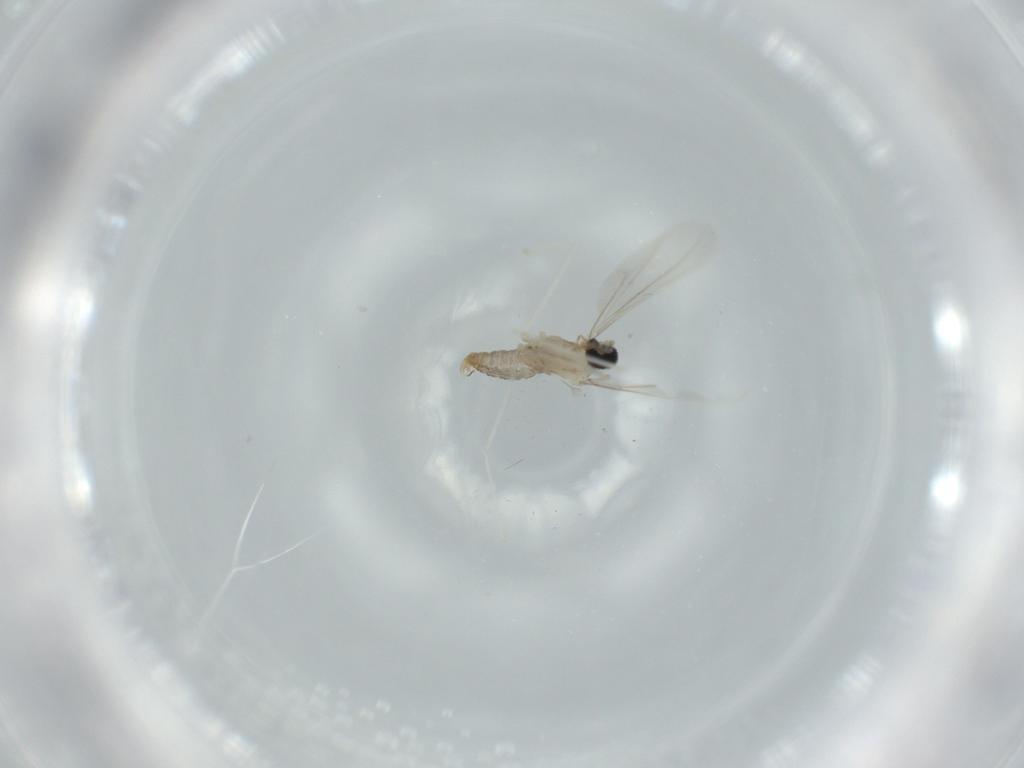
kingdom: Animalia
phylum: Arthropoda
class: Insecta
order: Diptera
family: Cecidomyiidae
